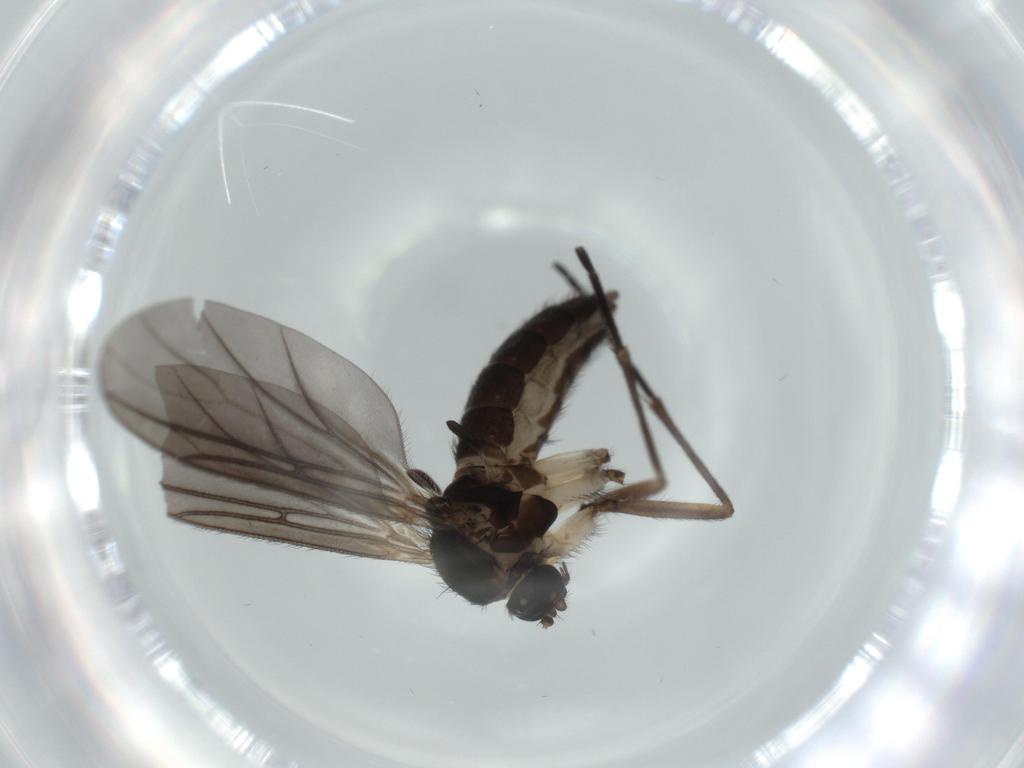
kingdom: Animalia
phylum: Arthropoda
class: Insecta
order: Diptera
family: Sciaridae
